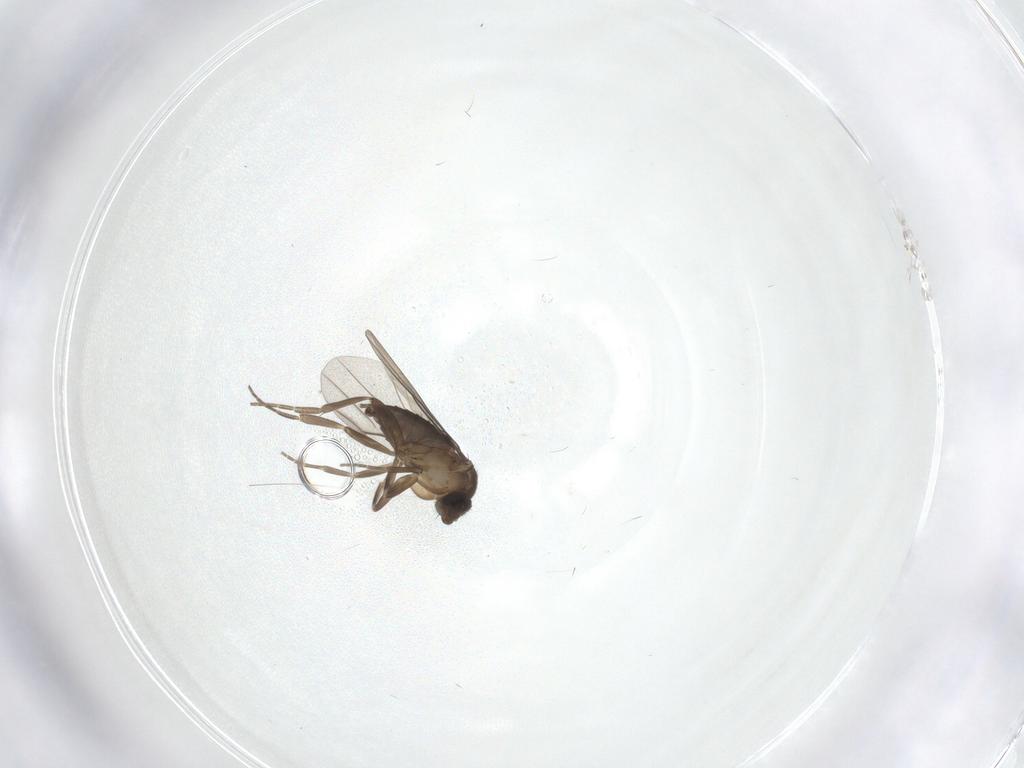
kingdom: Animalia
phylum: Arthropoda
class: Insecta
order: Diptera
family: Phoridae
